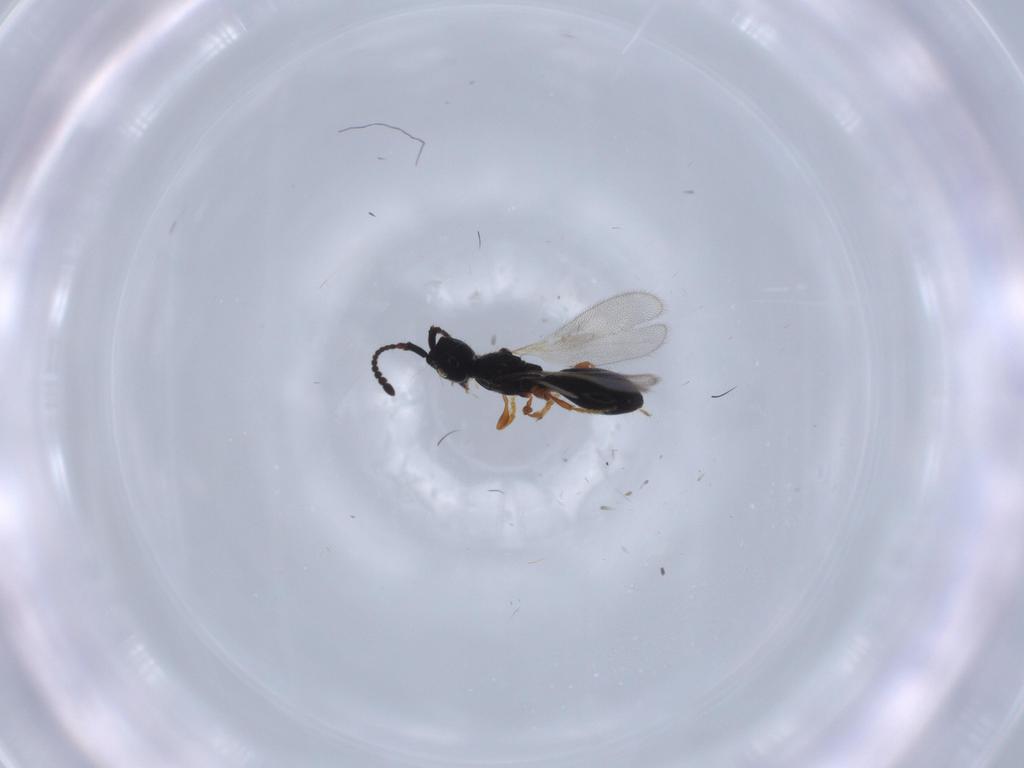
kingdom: Animalia
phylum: Arthropoda
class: Insecta
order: Hymenoptera
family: Diapriidae
